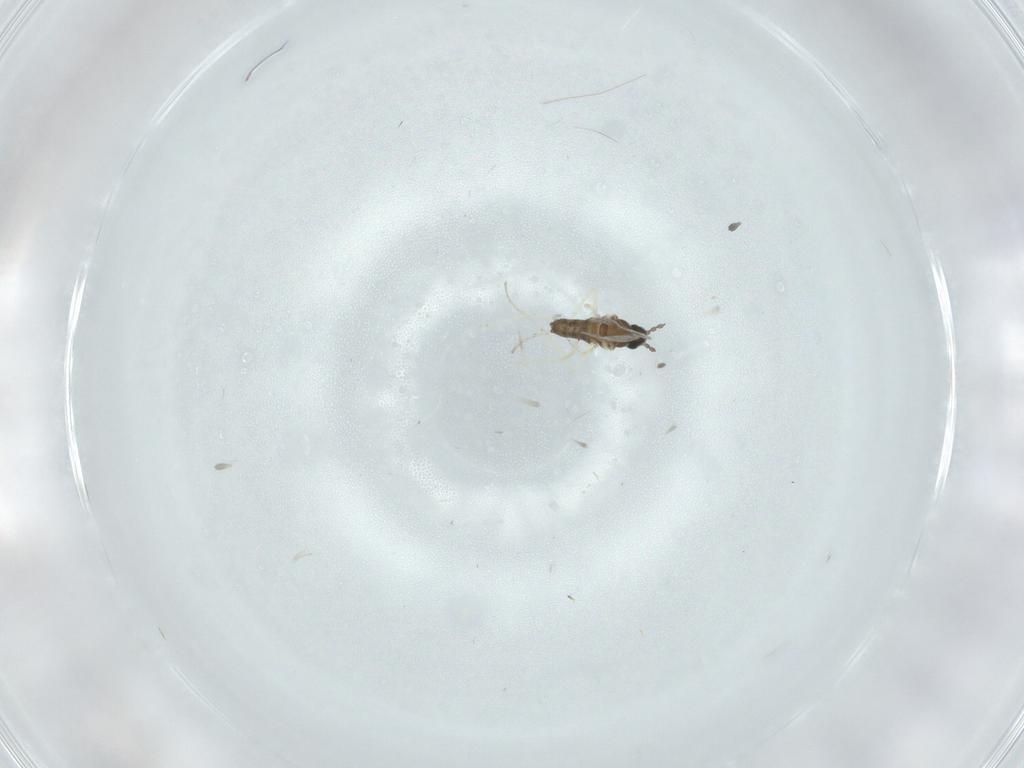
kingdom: Animalia
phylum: Arthropoda
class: Insecta
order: Diptera
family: Cecidomyiidae
